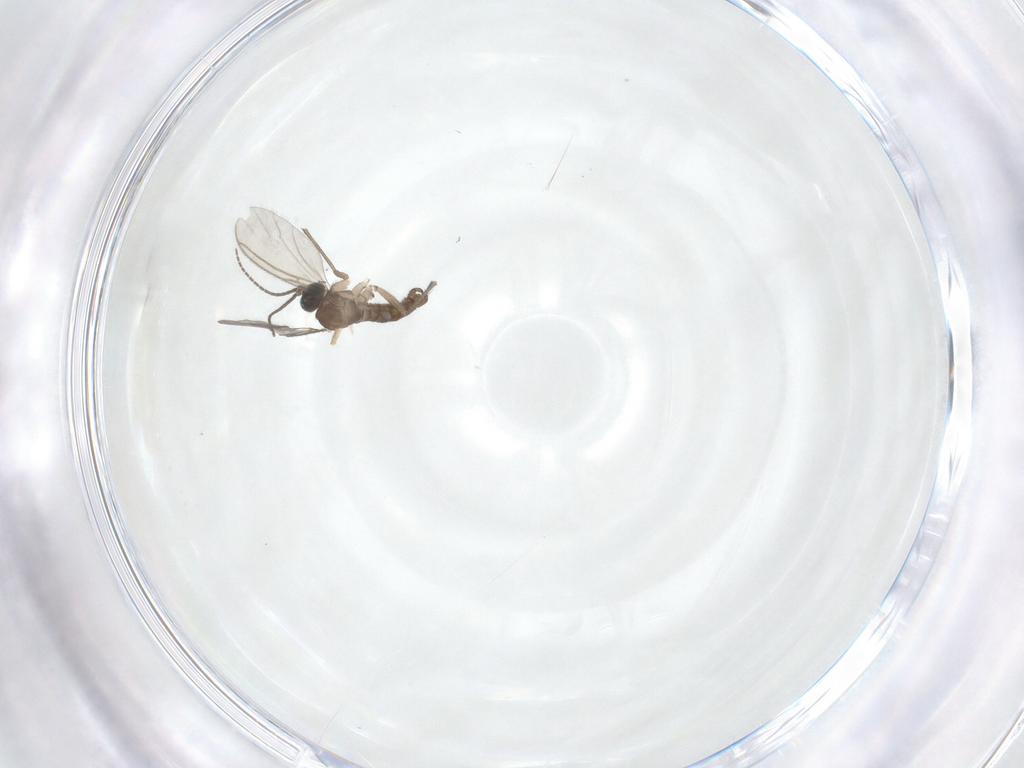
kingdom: Animalia
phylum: Arthropoda
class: Insecta
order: Diptera
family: Sciaridae
